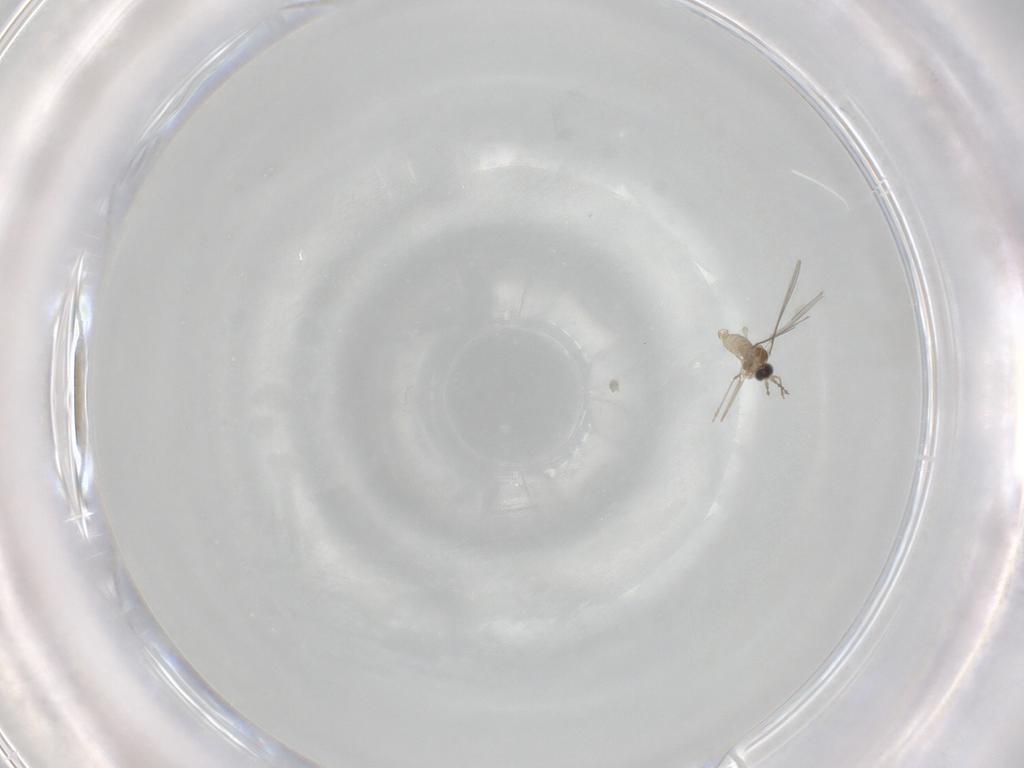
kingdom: Animalia
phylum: Arthropoda
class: Insecta
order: Diptera
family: Cecidomyiidae
